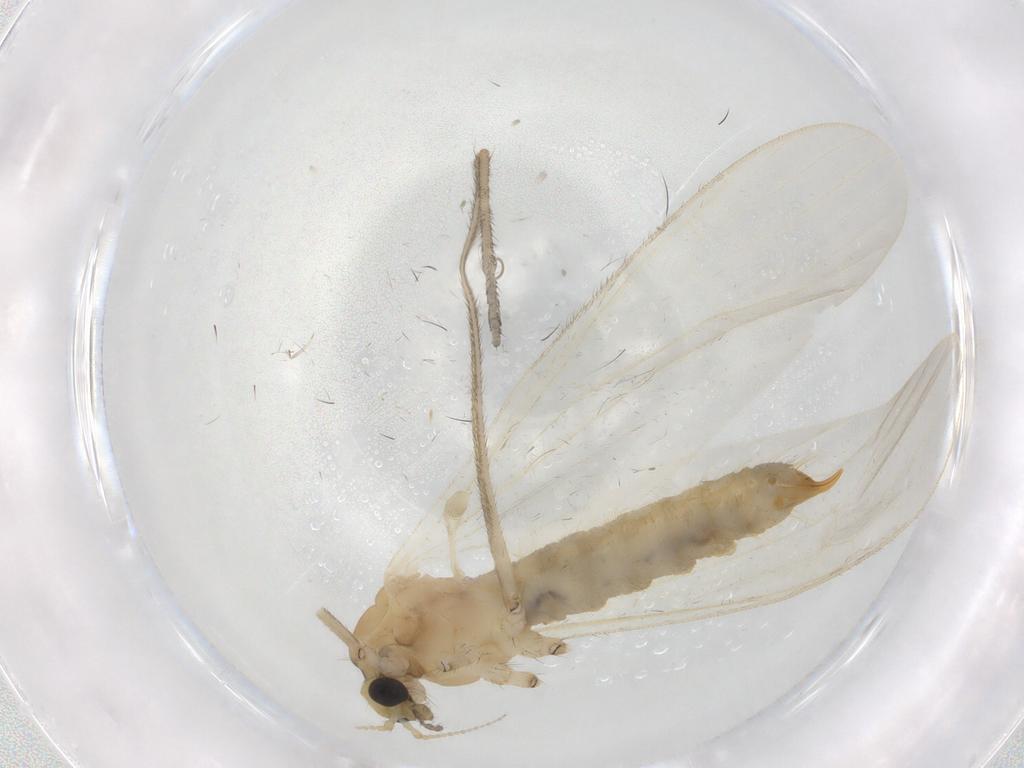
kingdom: Animalia
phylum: Arthropoda
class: Insecta
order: Diptera
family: Limoniidae
